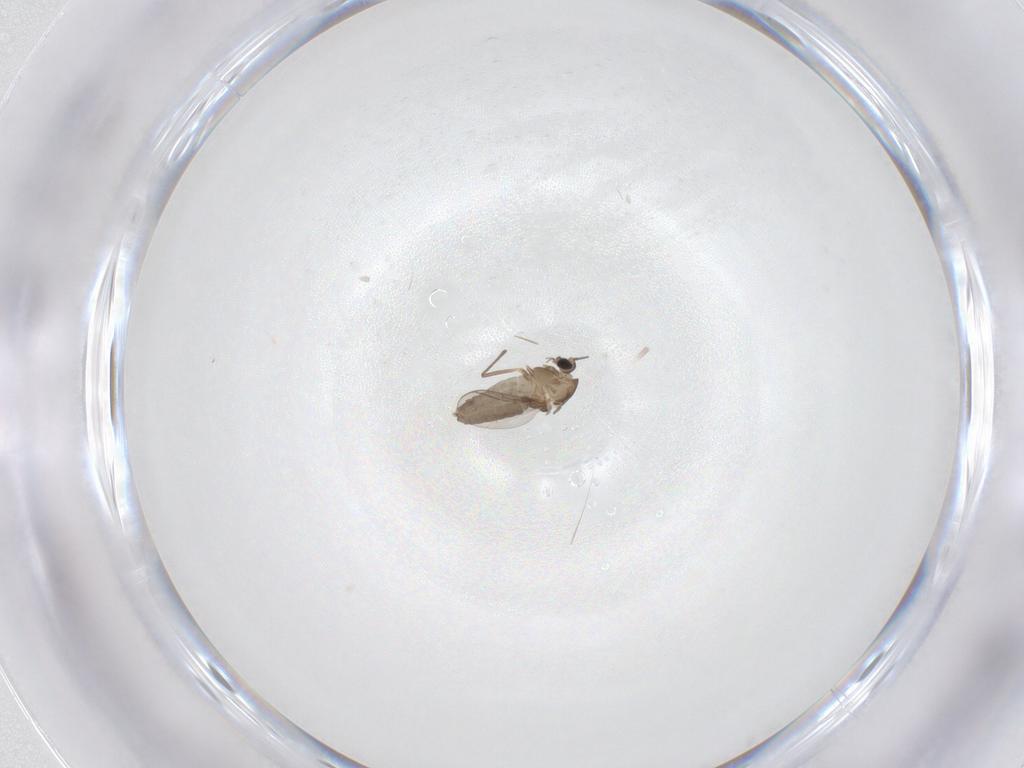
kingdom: Animalia
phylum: Arthropoda
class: Insecta
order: Diptera
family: Chironomidae
